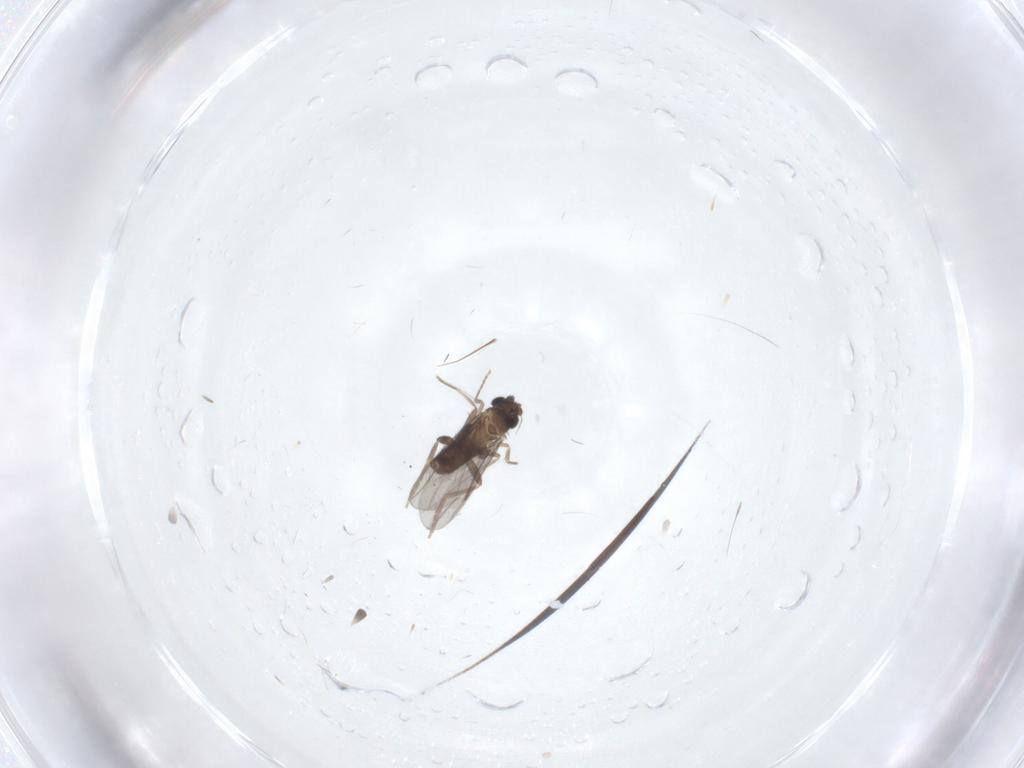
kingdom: Animalia
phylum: Arthropoda
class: Insecta
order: Diptera
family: Cecidomyiidae
